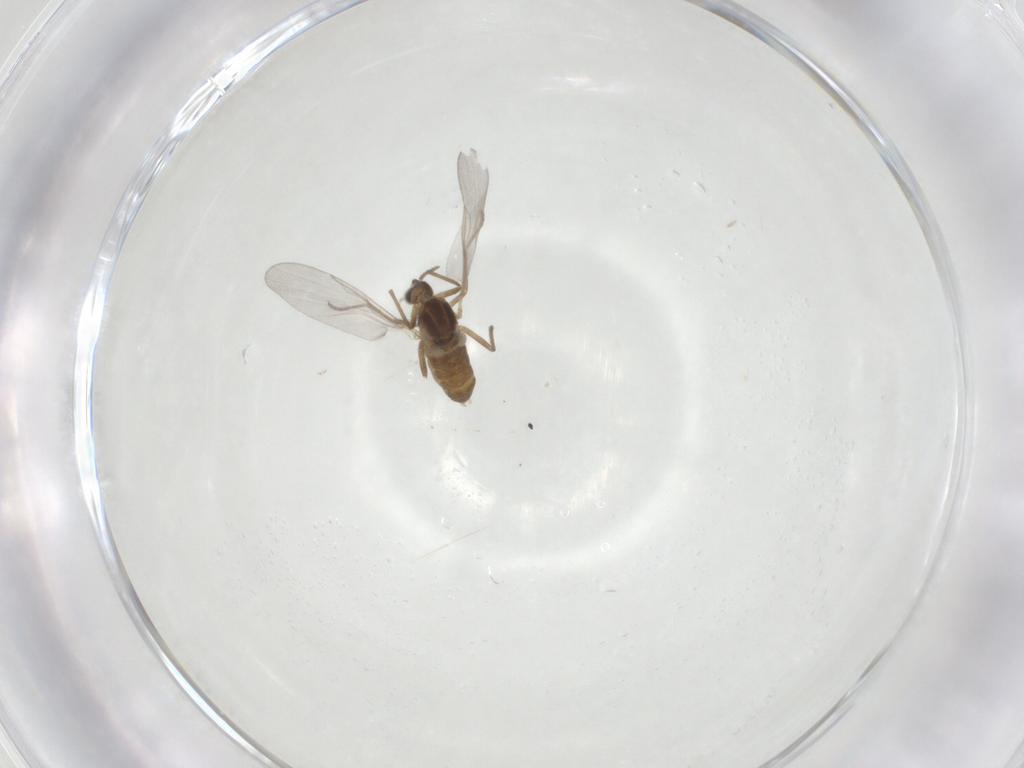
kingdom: Animalia
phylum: Arthropoda
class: Insecta
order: Diptera
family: Cecidomyiidae
